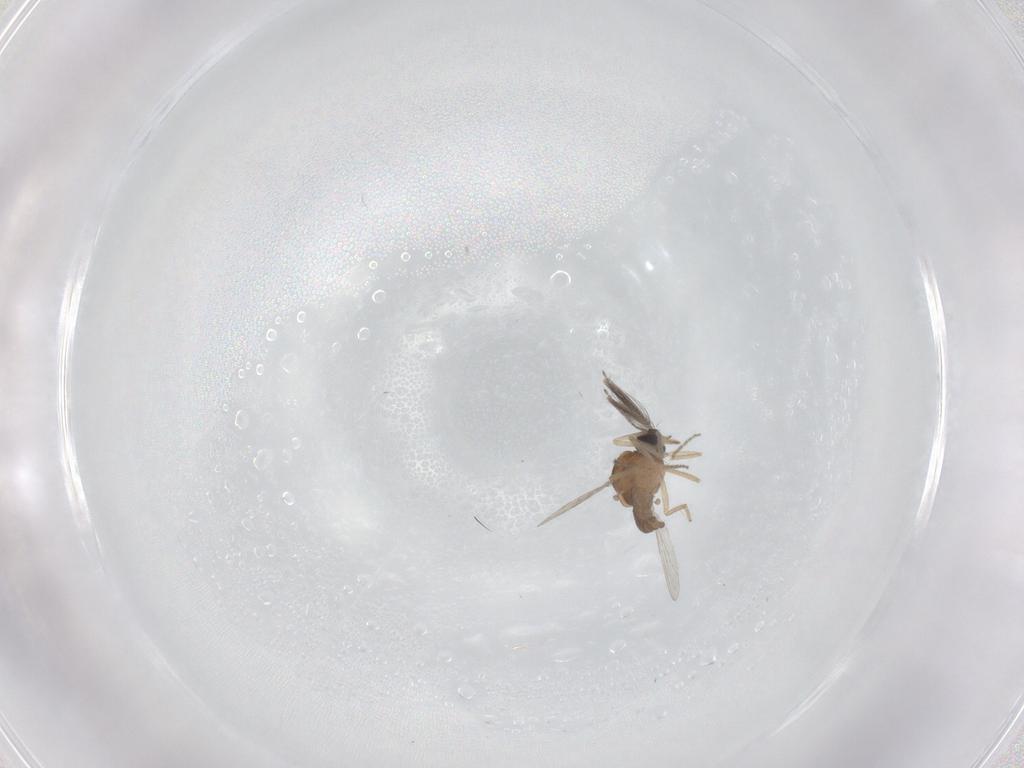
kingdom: Animalia
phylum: Arthropoda
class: Insecta
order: Diptera
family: Ceratopogonidae
